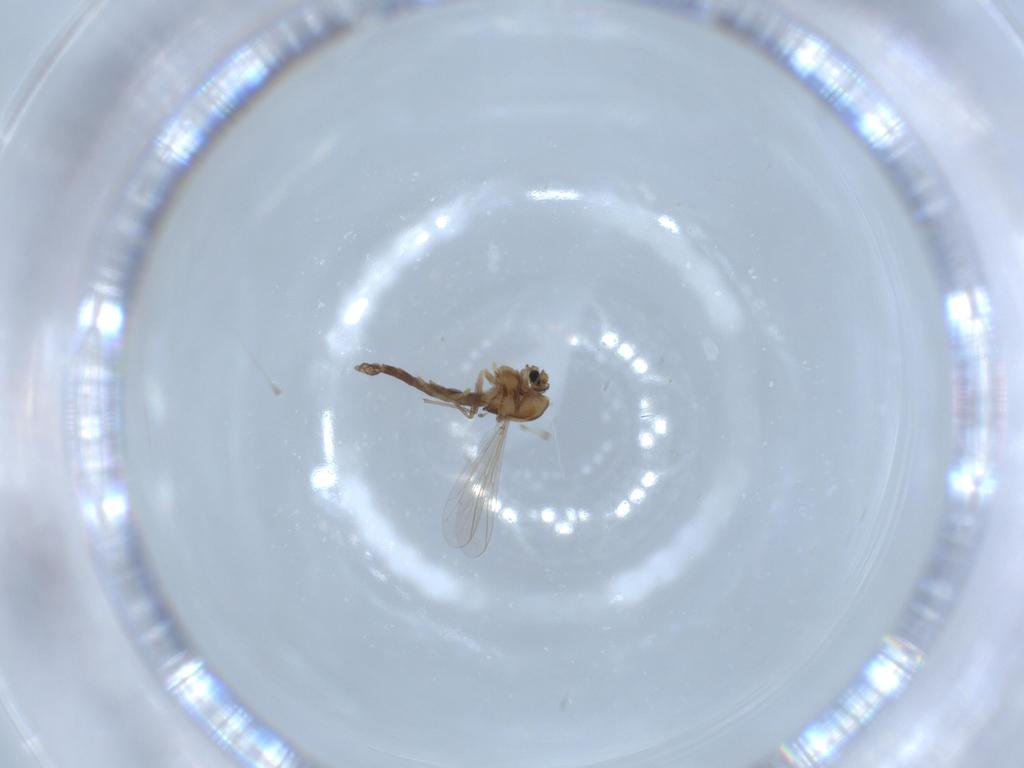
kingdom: Animalia
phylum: Arthropoda
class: Insecta
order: Diptera
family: Chironomidae
